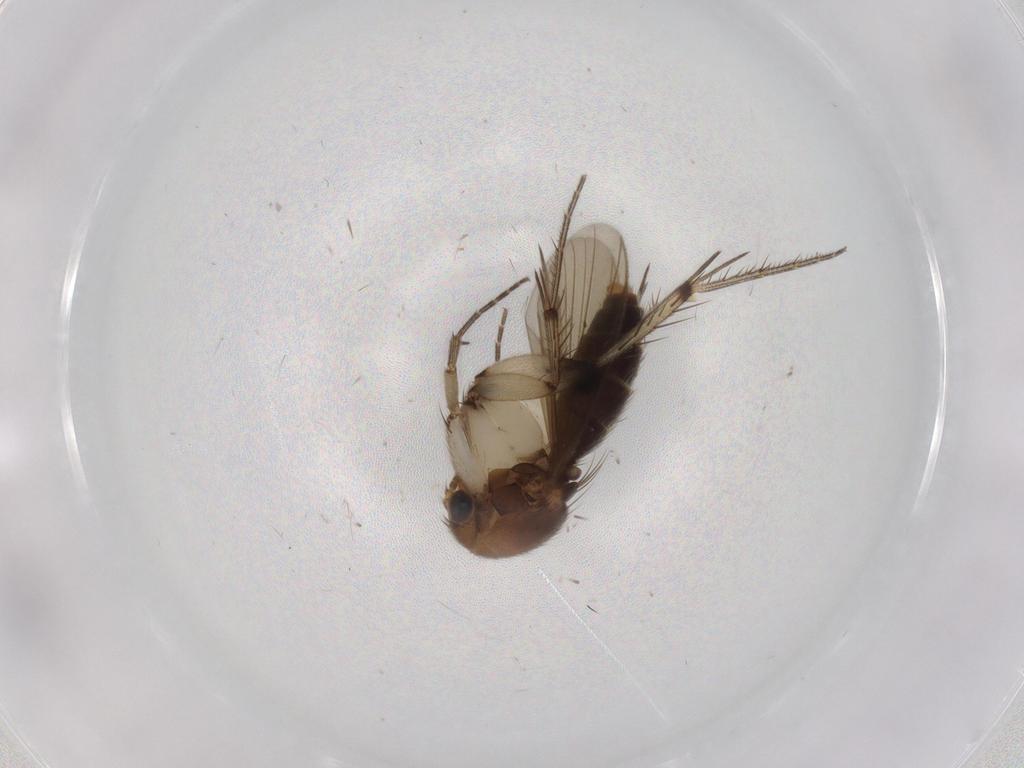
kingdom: Animalia
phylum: Arthropoda
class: Insecta
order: Diptera
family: Mycetophilidae
